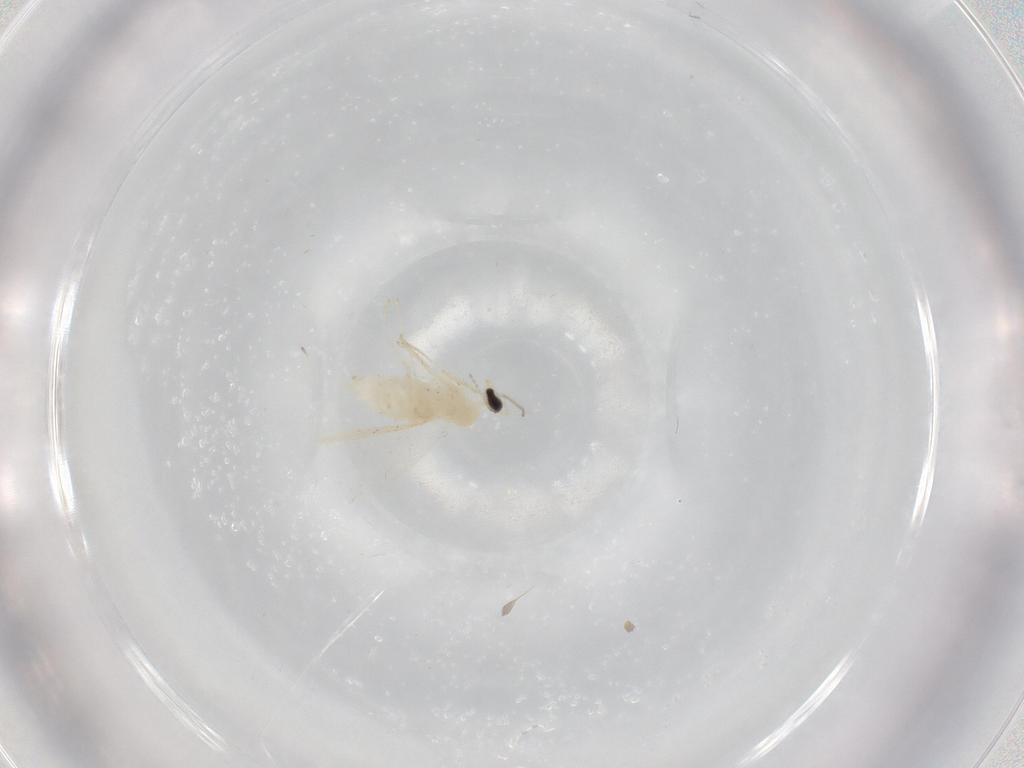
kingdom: Animalia
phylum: Arthropoda
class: Insecta
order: Diptera
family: Cecidomyiidae
